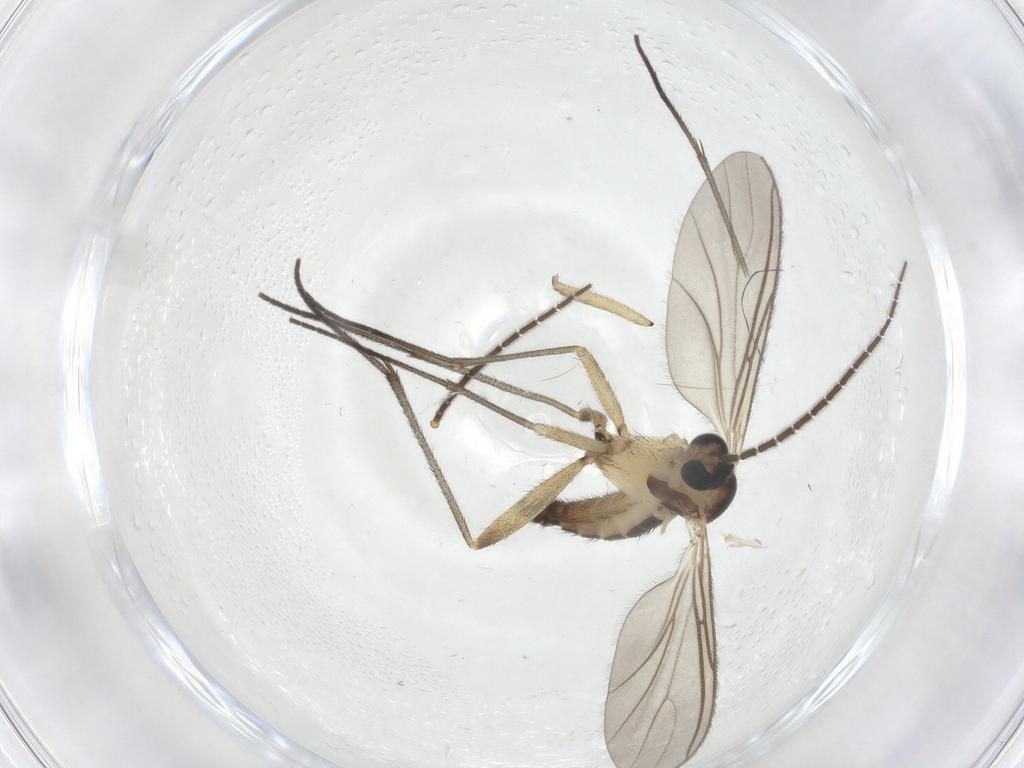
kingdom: Animalia
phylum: Arthropoda
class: Insecta
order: Diptera
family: Sciaridae
